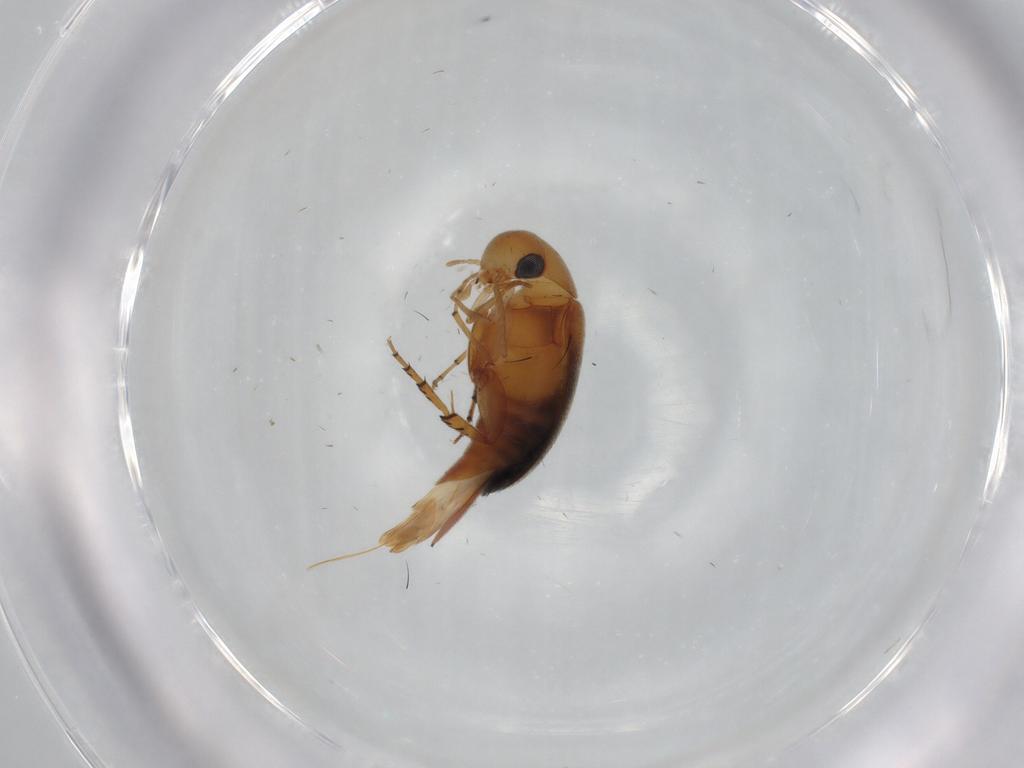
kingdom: Animalia
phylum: Arthropoda
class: Insecta
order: Coleoptera
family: Mordellidae
